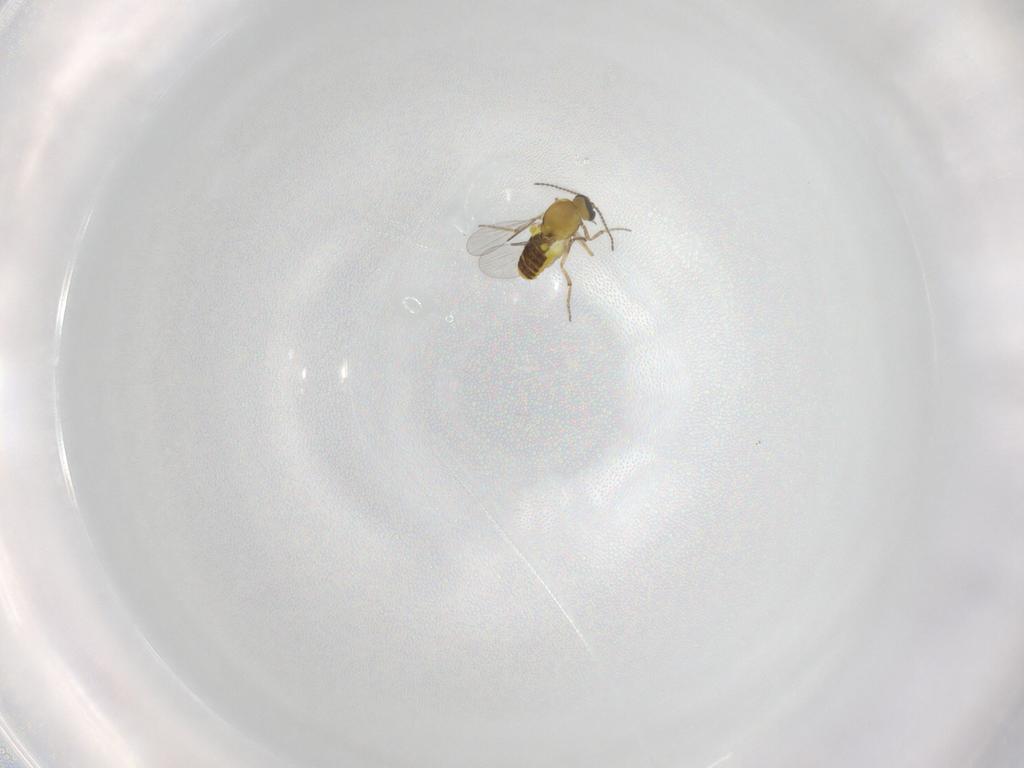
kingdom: Animalia
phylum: Arthropoda
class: Insecta
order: Diptera
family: Ceratopogonidae
